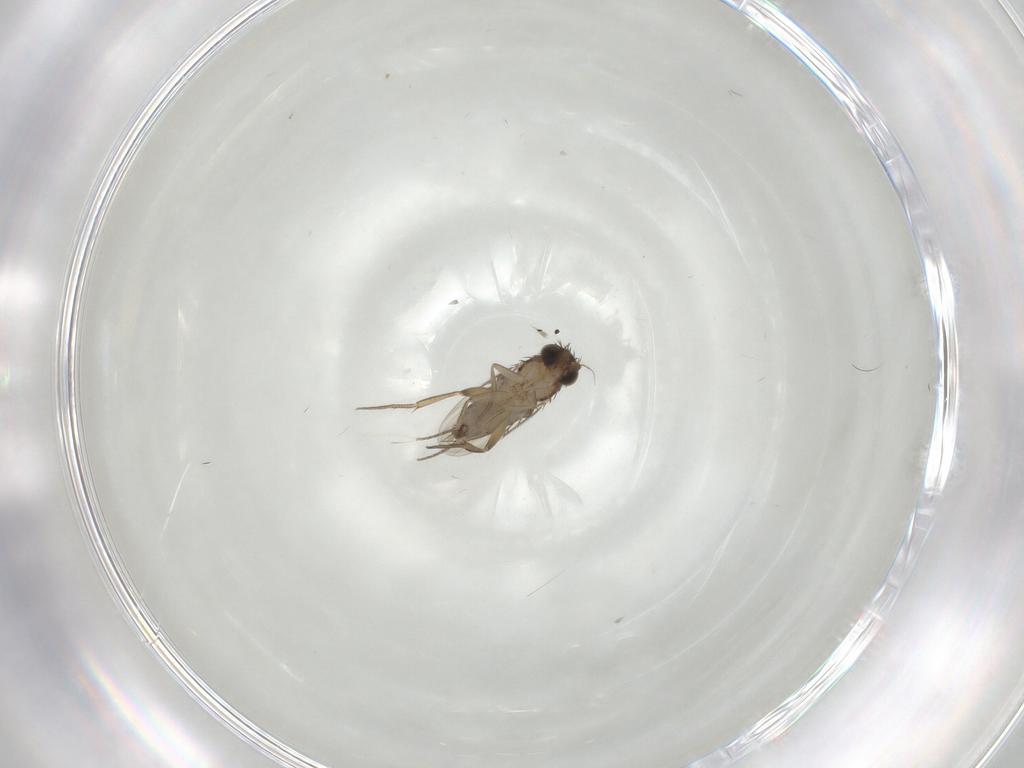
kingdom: Animalia
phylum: Arthropoda
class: Insecta
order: Diptera
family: Phoridae
